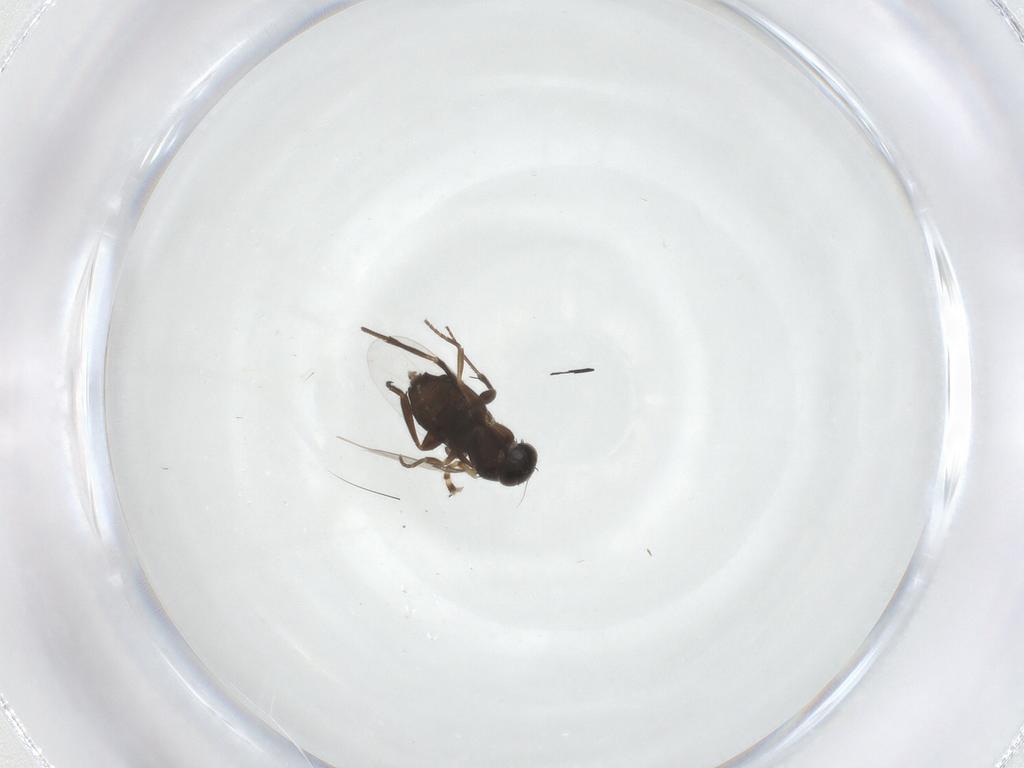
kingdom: Animalia
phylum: Arthropoda
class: Insecta
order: Diptera
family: Phoridae
